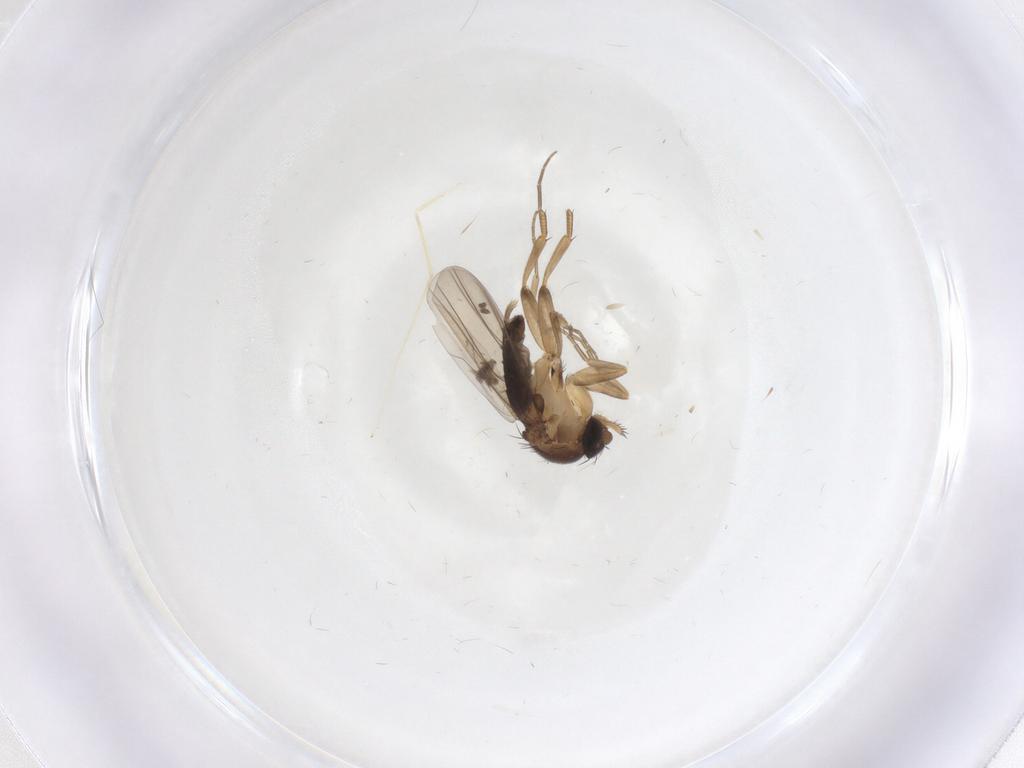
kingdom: Animalia
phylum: Arthropoda
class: Insecta
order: Diptera
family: Phoridae
